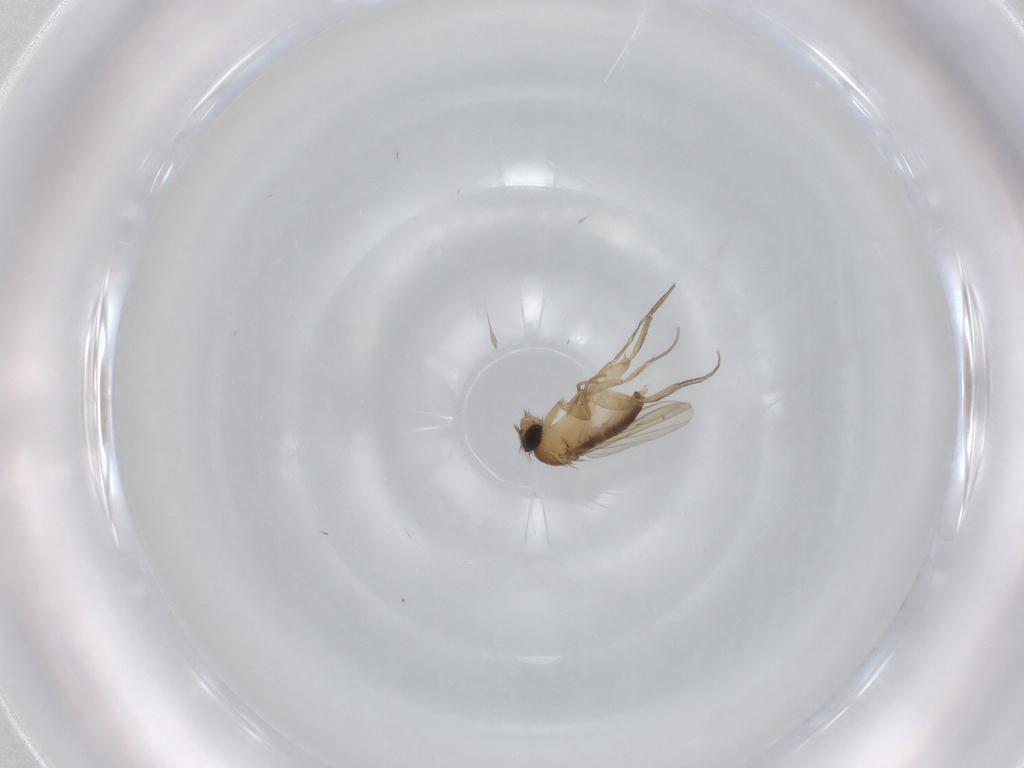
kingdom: Animalia
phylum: Arthropoda
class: Insecta
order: Diptera
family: Phoridae
